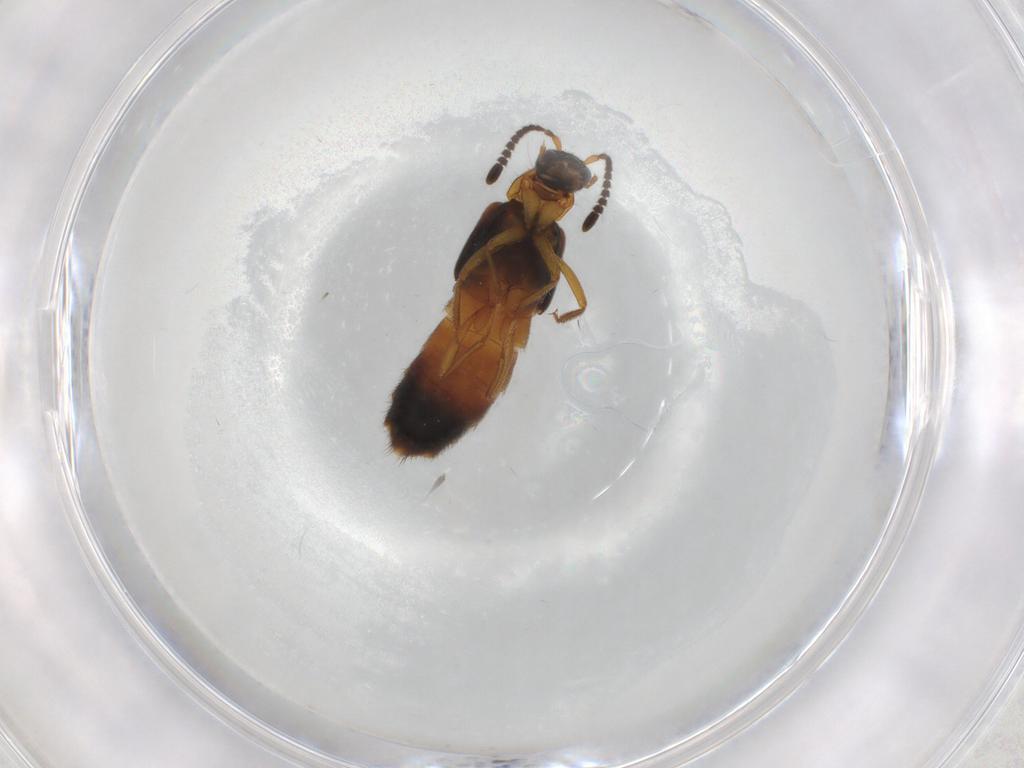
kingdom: Animalia
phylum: Arthropoda
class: Insecta
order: Coleoptera
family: Staphylinidae
